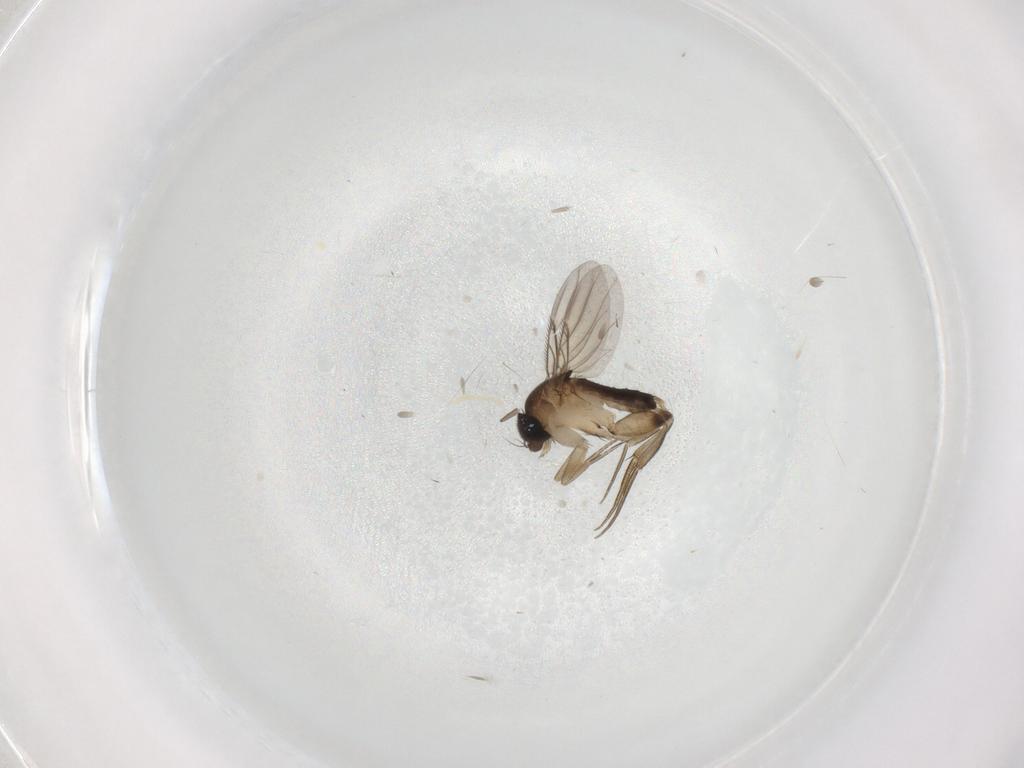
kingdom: Animalia
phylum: Arthropoda
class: Insecta
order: Diptera
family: Phoridae
